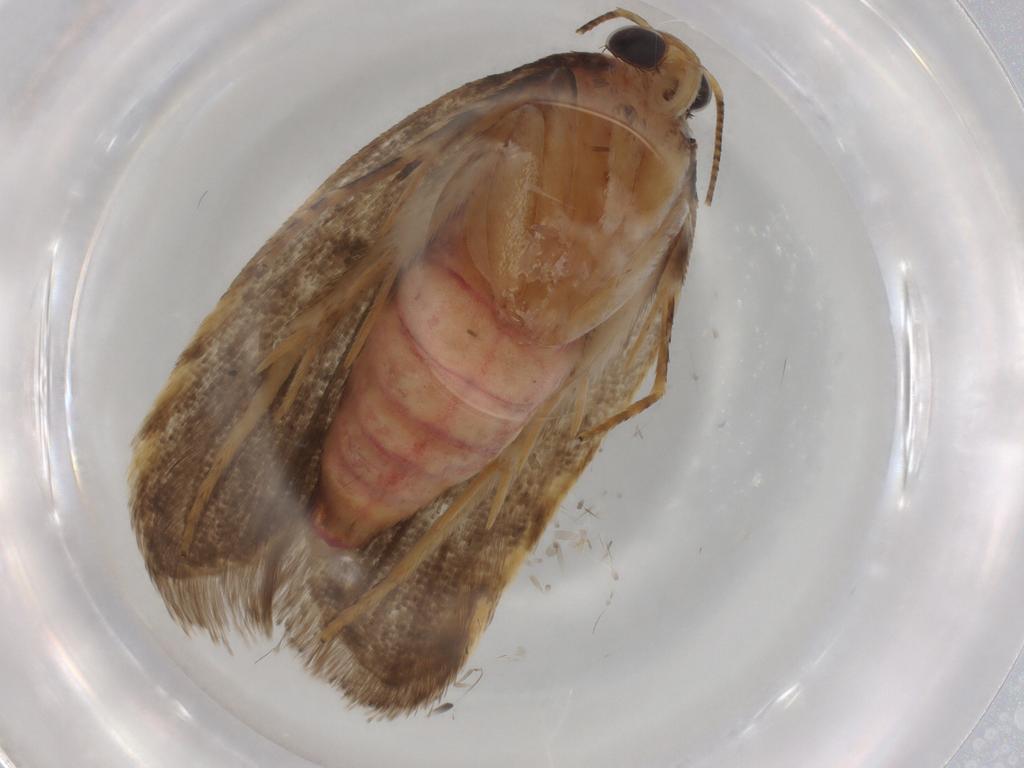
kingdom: Animalia
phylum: Arthropoda
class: Insecta
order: Lepidoptera
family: Depressariidae
